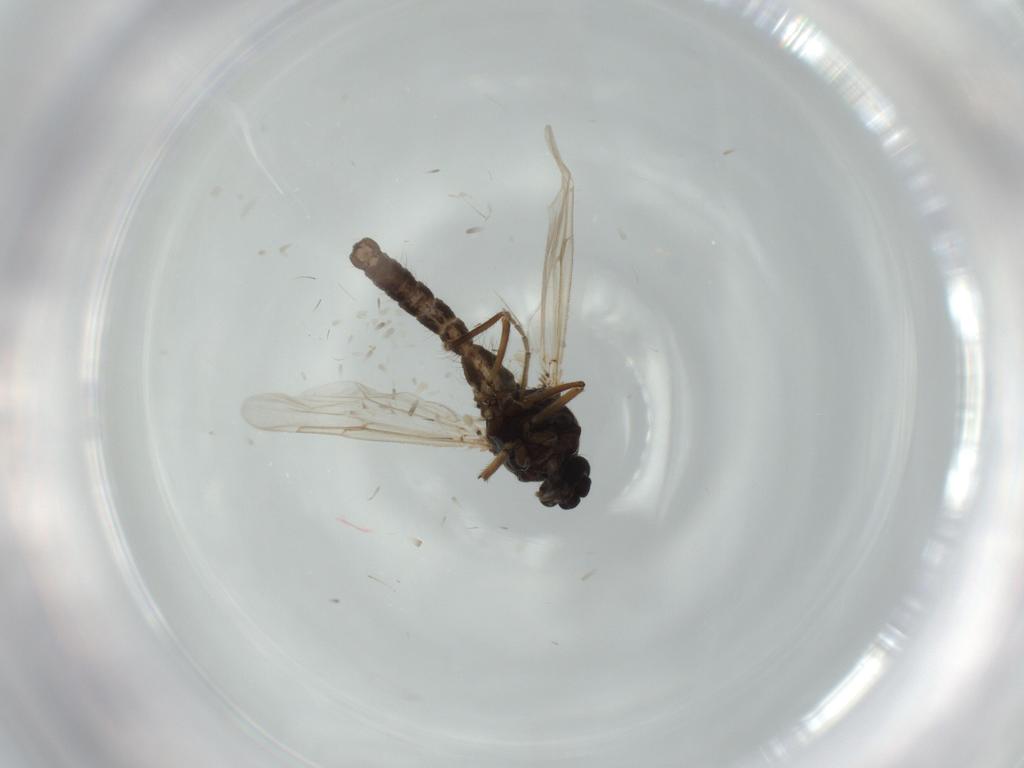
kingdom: Animalia
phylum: Arthropoda
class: Insecta
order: Diptera
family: Ceratopogonidae
